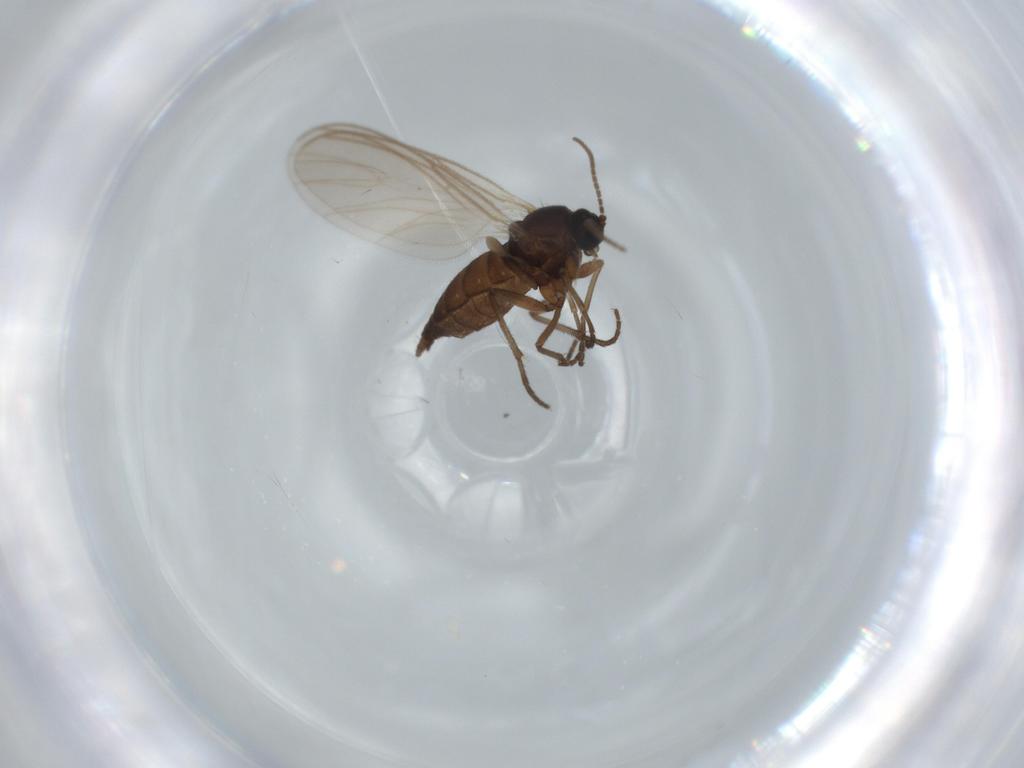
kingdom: Animalia
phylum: Arthropoda
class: Insecta
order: Diptera
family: Sciaridae
